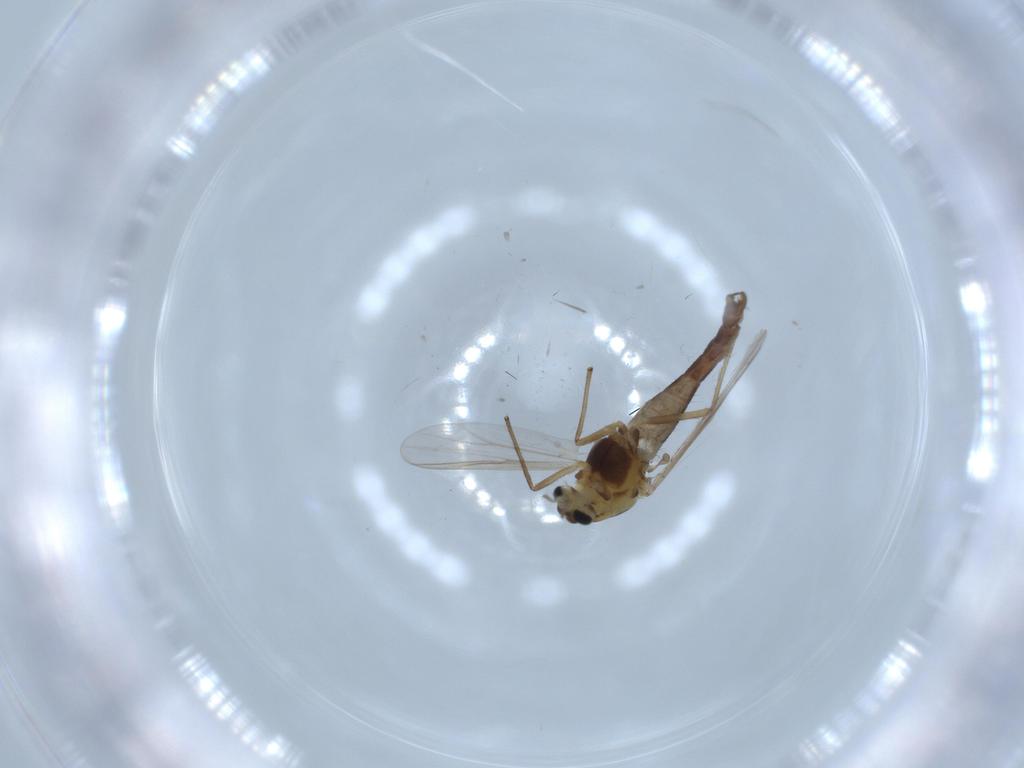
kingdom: Animalia
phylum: Arthropoda
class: Insecta
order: Diptera
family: Chironomidae
